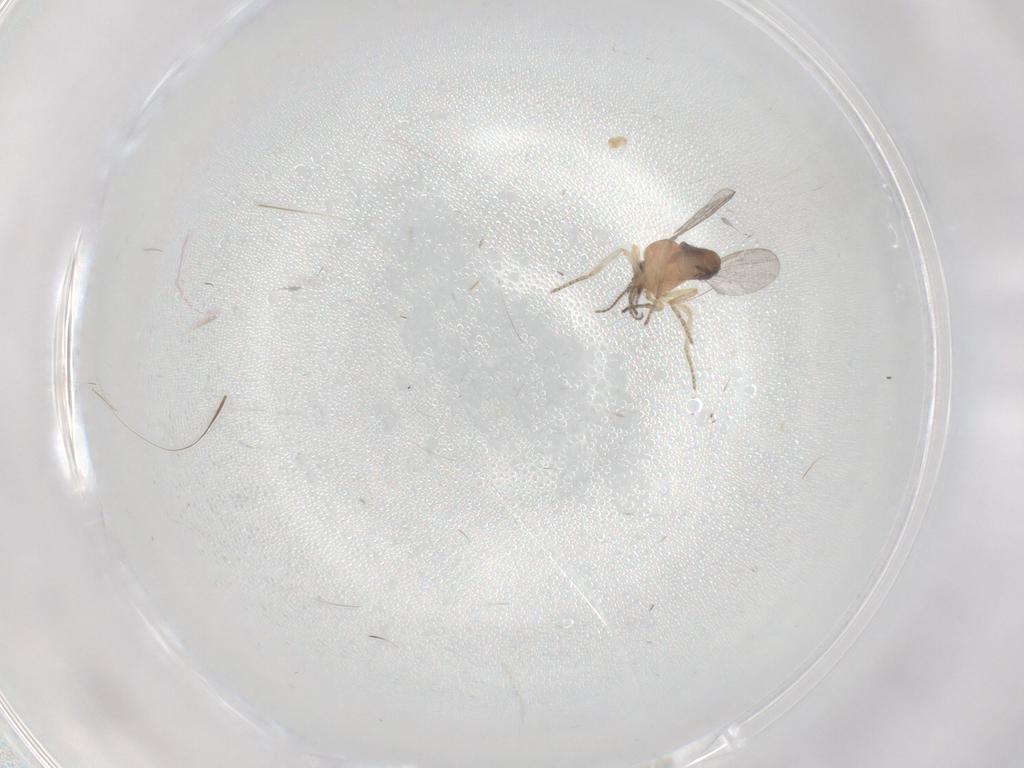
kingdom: Animalia
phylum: Arthropoda
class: Insecta
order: Diptera
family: Ceratopogonidae
